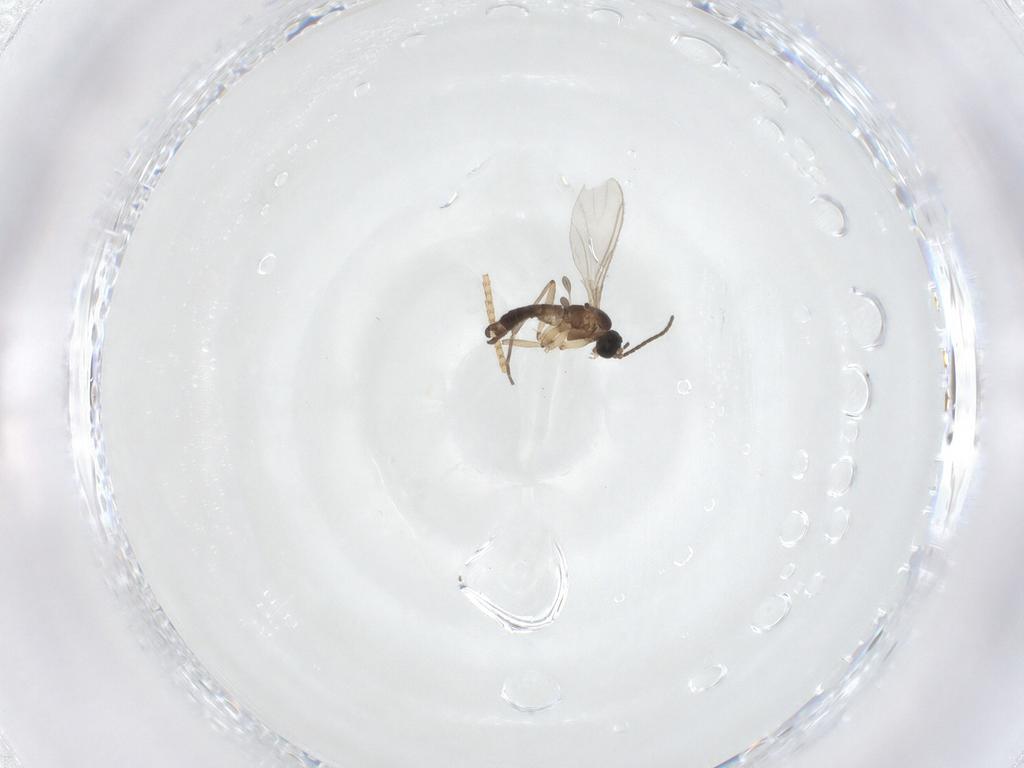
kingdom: Animalia
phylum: Arthropoda
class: Insecta
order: Diptera
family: Sciaridae
